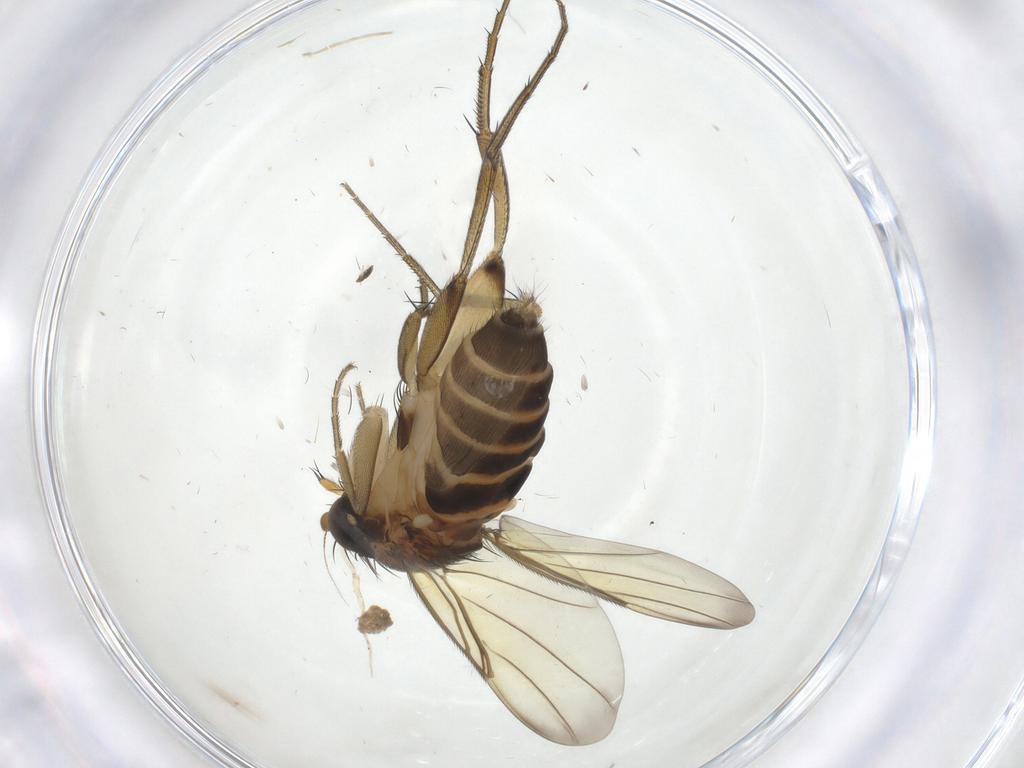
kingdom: Animalia
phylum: Arthropoda
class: Insecta
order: Diptera
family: Phoridae
